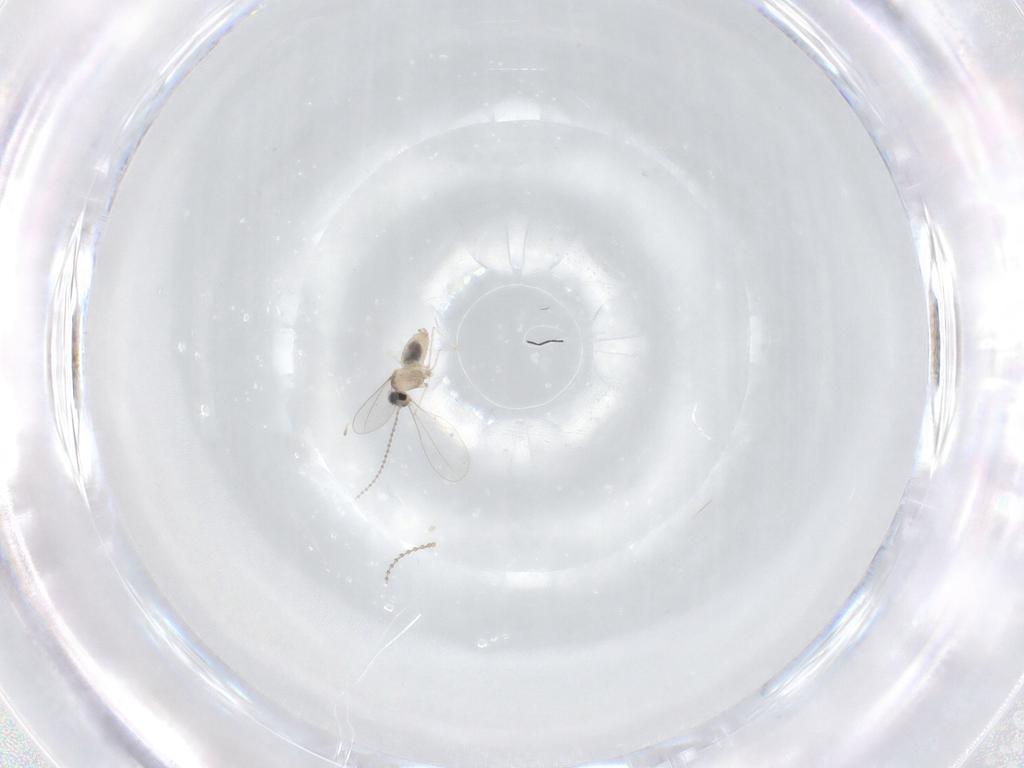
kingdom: Animalia
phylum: Arthropoda
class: Insecta
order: Diptera
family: Cecidomyiidae
